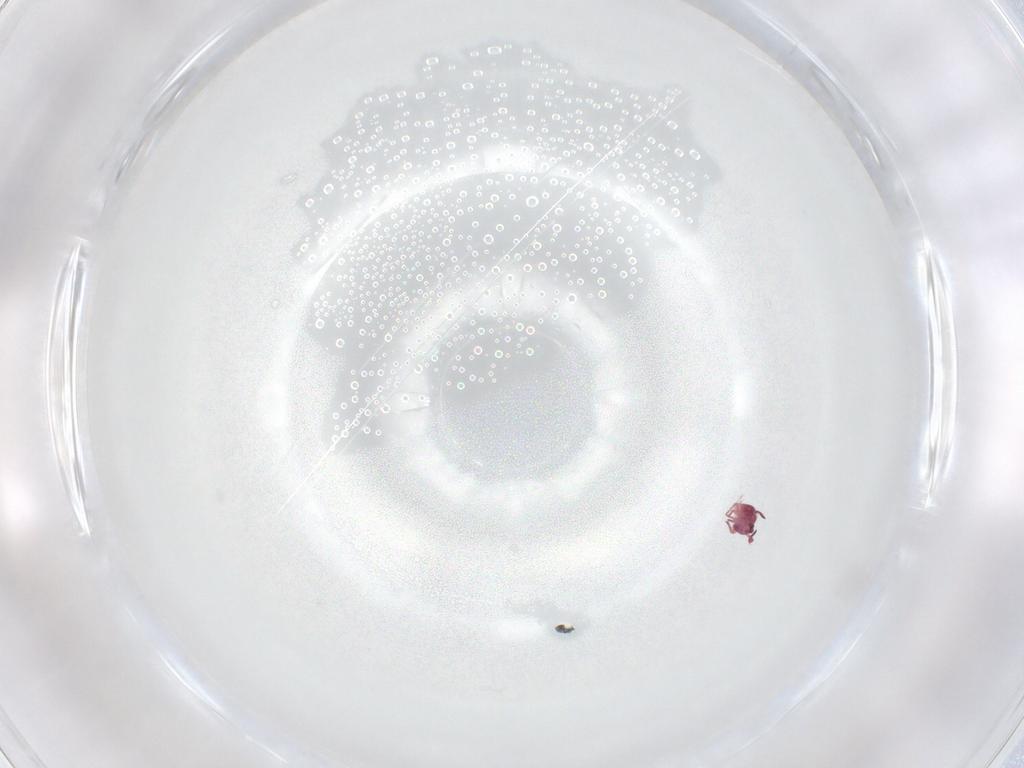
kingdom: Animalia
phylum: Arthropoda
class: Collembola
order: Symphypleona
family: Sminthurididae
